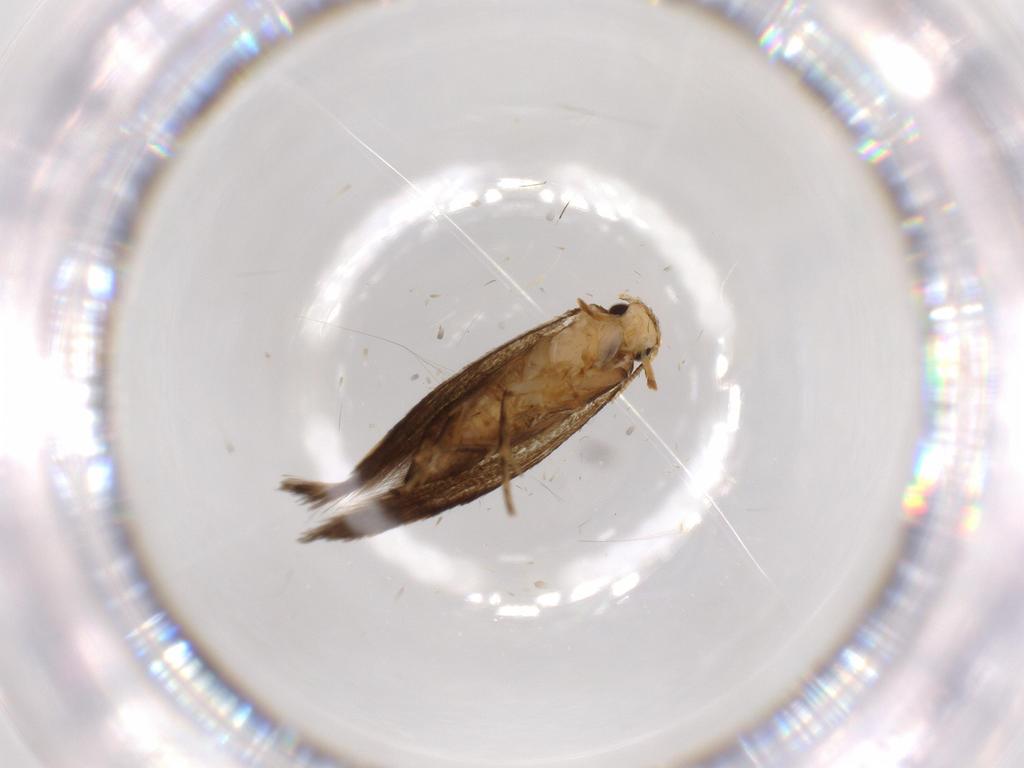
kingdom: Animalia
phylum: Arthropoda
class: Insecta
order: Lepidoptera
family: Tineidae
